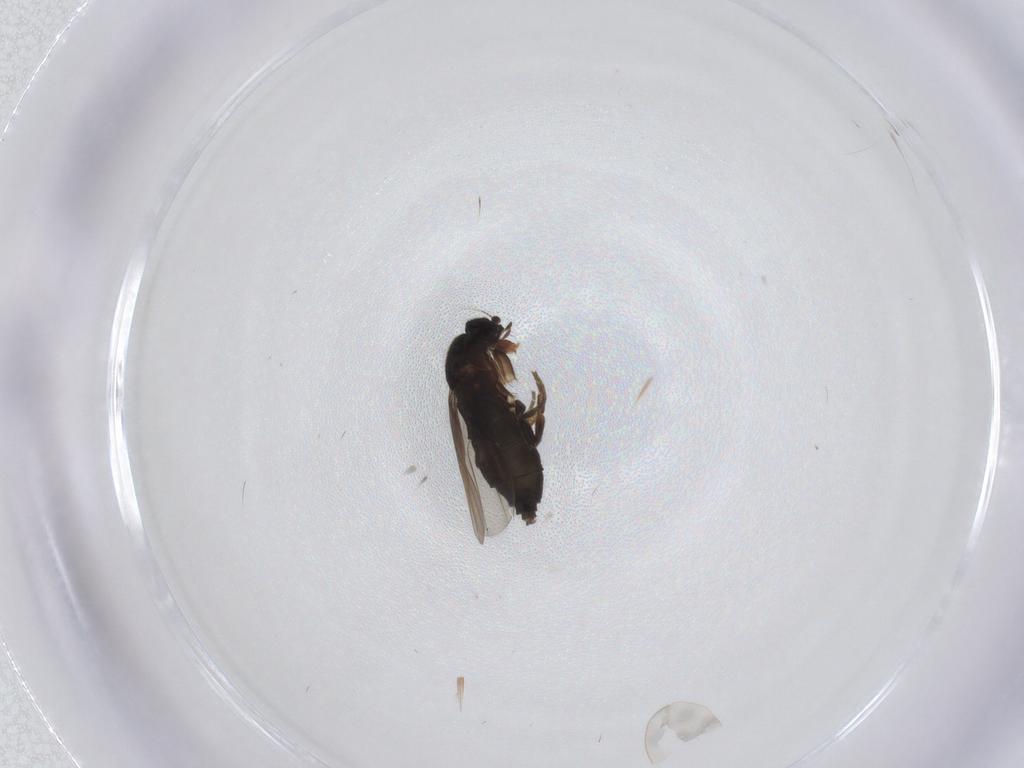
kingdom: Animalia
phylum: Arthropoda
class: Insecta
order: Diptera
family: Phoridae
